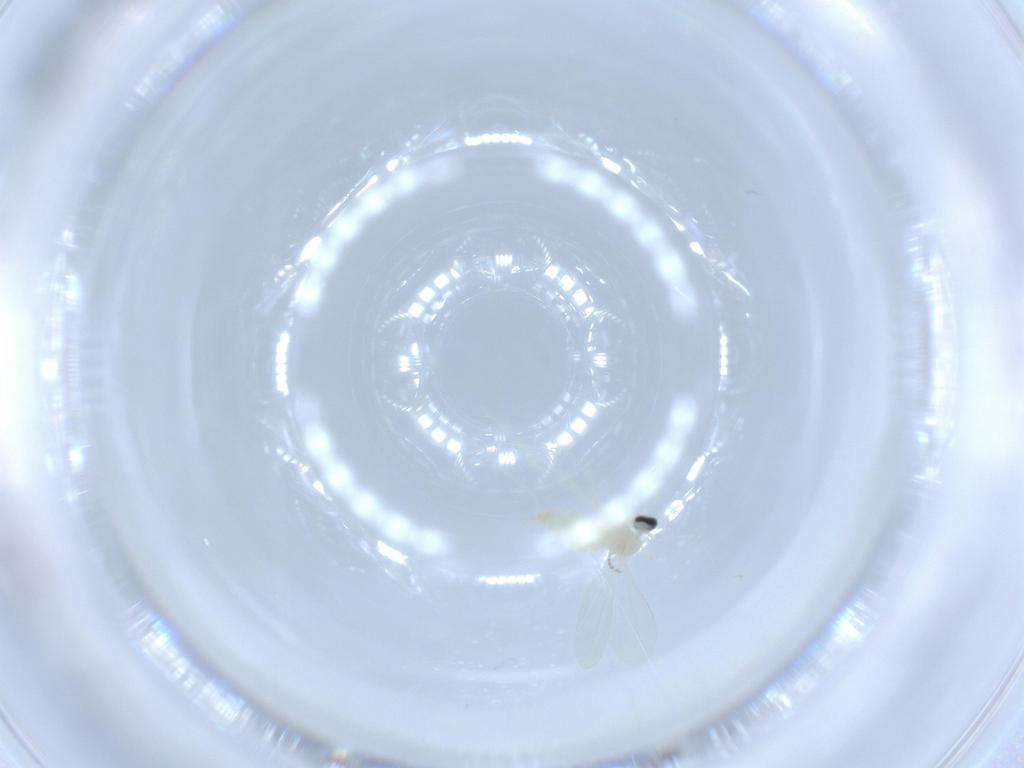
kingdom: Animalia
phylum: Arthropoda
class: Insecta
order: Diptera
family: Cecidomyiidae
